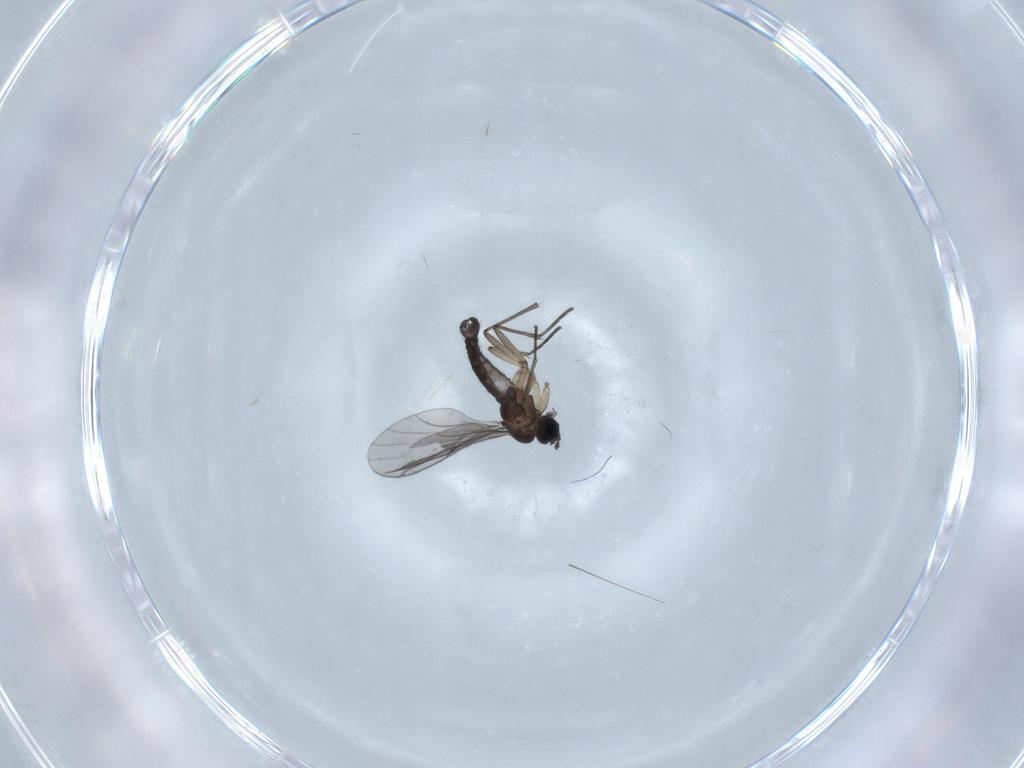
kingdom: Animalia
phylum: Arthropoda
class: Insecta
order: Diptera
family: Sciaridae
